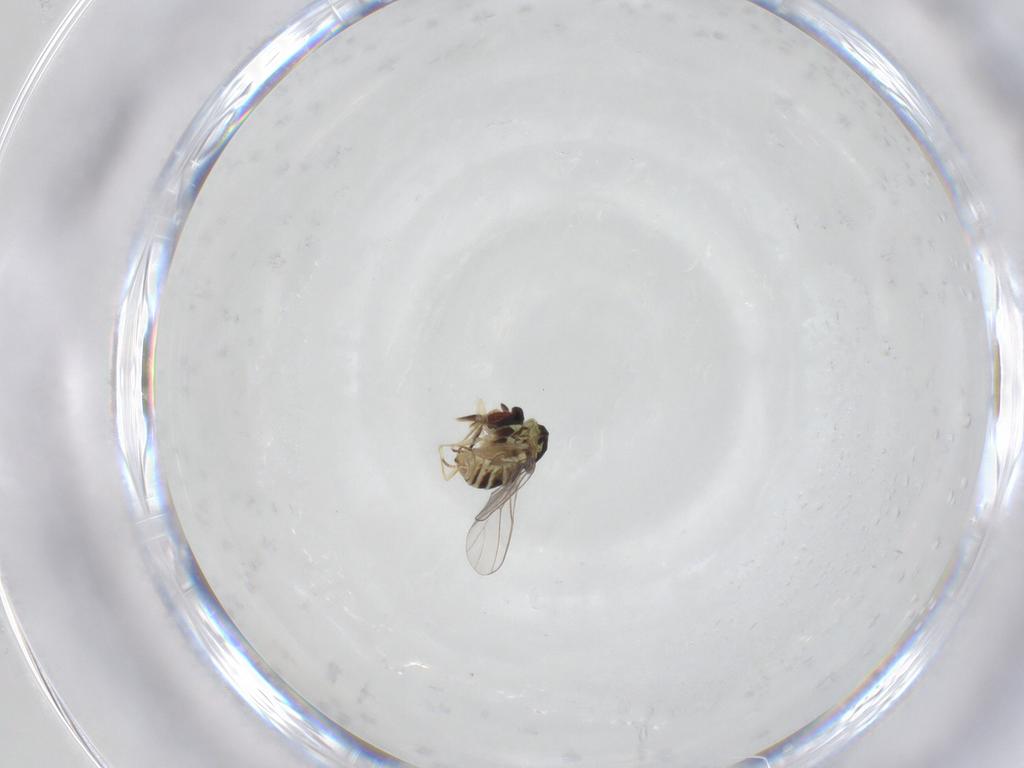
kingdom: Animalia
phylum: Arthropoda
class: Insecta
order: Diptera
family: Mythicomyiidae
